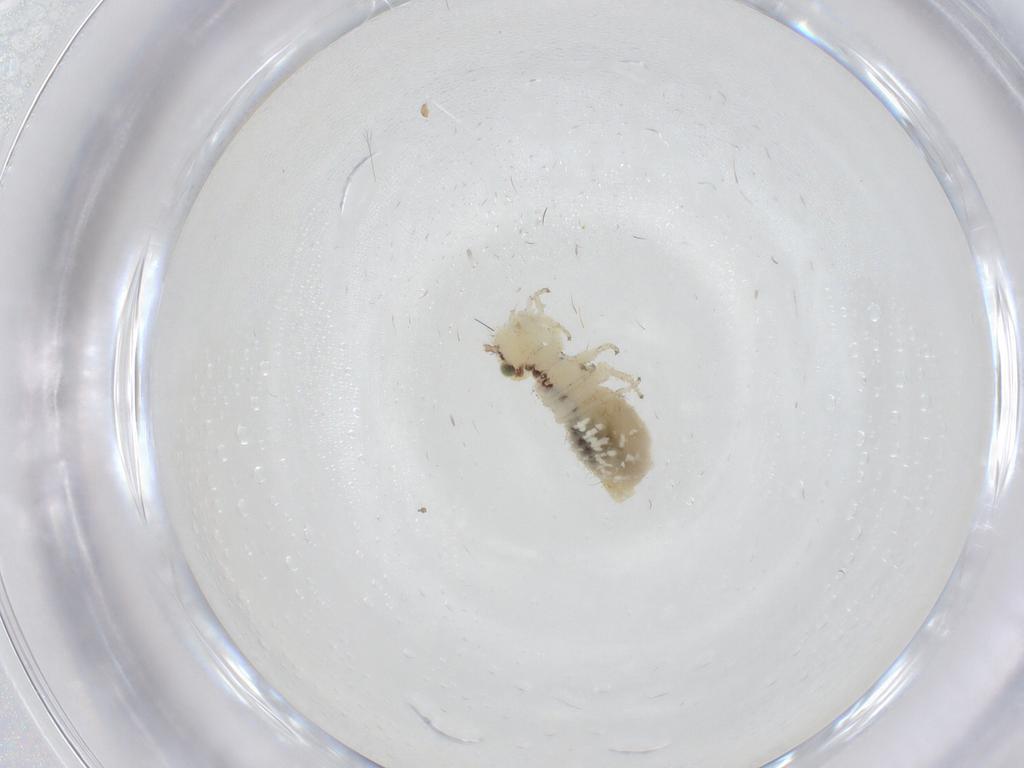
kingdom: Animalia
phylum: Arthropoda
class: Insecta
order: Psocodea
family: Pseudocaeciliidae
